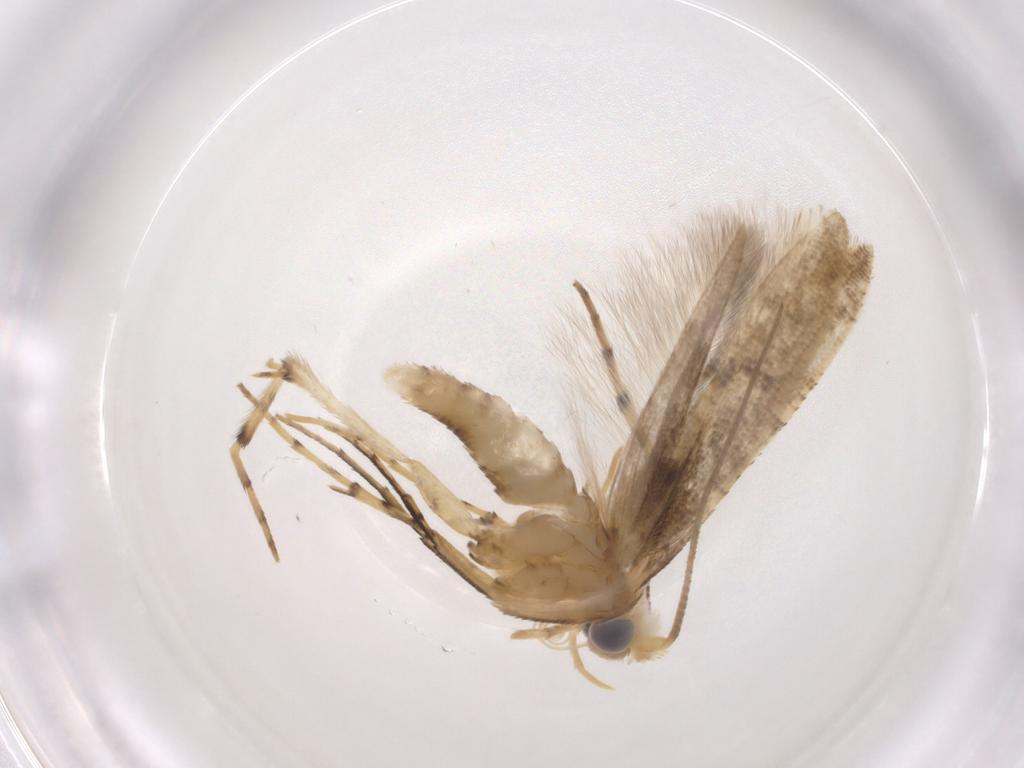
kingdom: Animalia
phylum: Arthropoda
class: Insecta
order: Lepidoptera
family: Argyresthiidae
